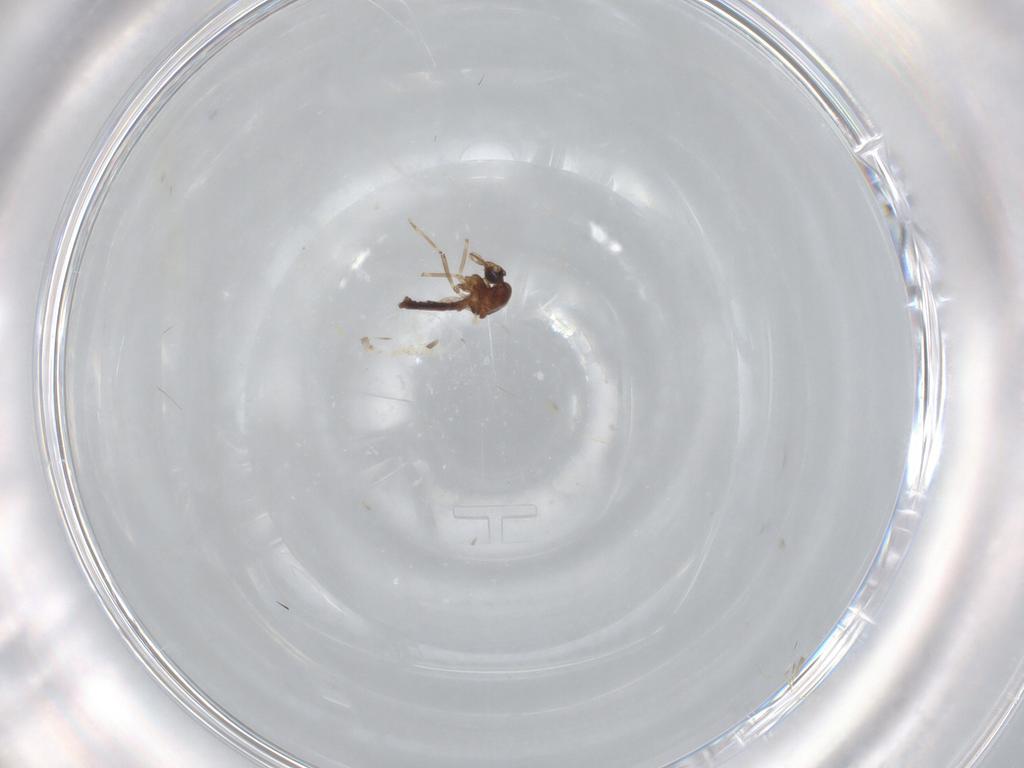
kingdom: Animalia
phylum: Arthropoda
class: Insecta
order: Diptera
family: Ceratopogonidae
